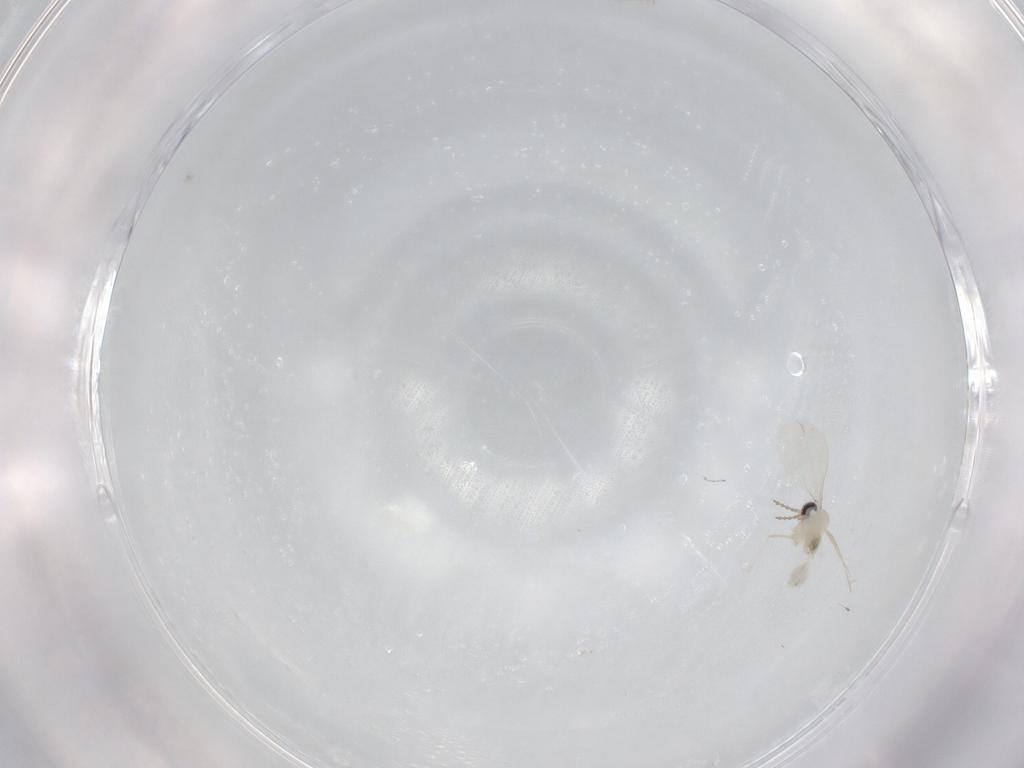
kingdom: Animalia
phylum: Arthropoda
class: Insecta
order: Diptera
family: Cecidomyiidae
